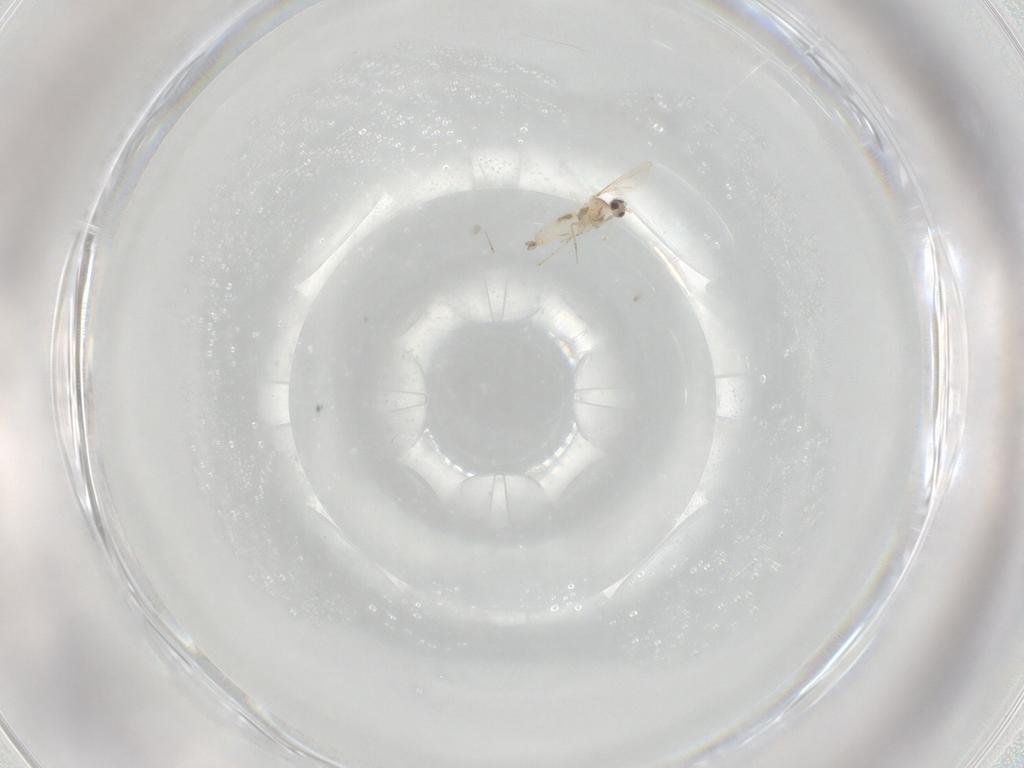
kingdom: Animalia
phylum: Arthropoda
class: Insecta
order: Diptera
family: Cecidomyiidae
